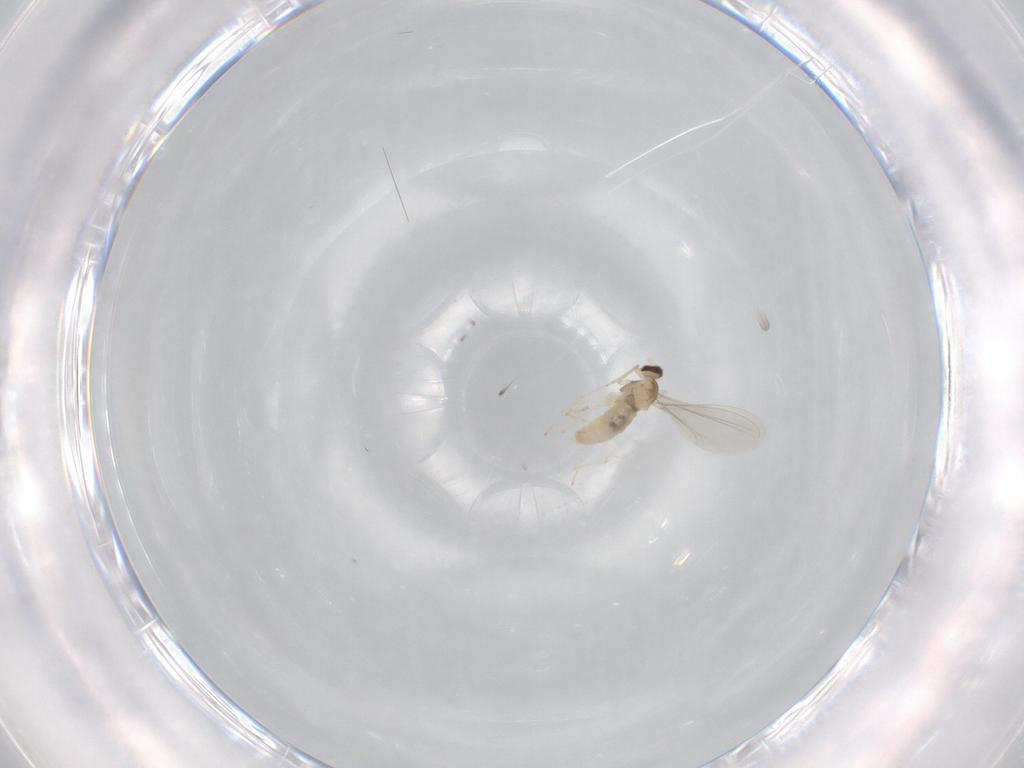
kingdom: Animalia
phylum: Arthropoda
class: Insecta
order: Diptera
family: Cecidomyiidae
